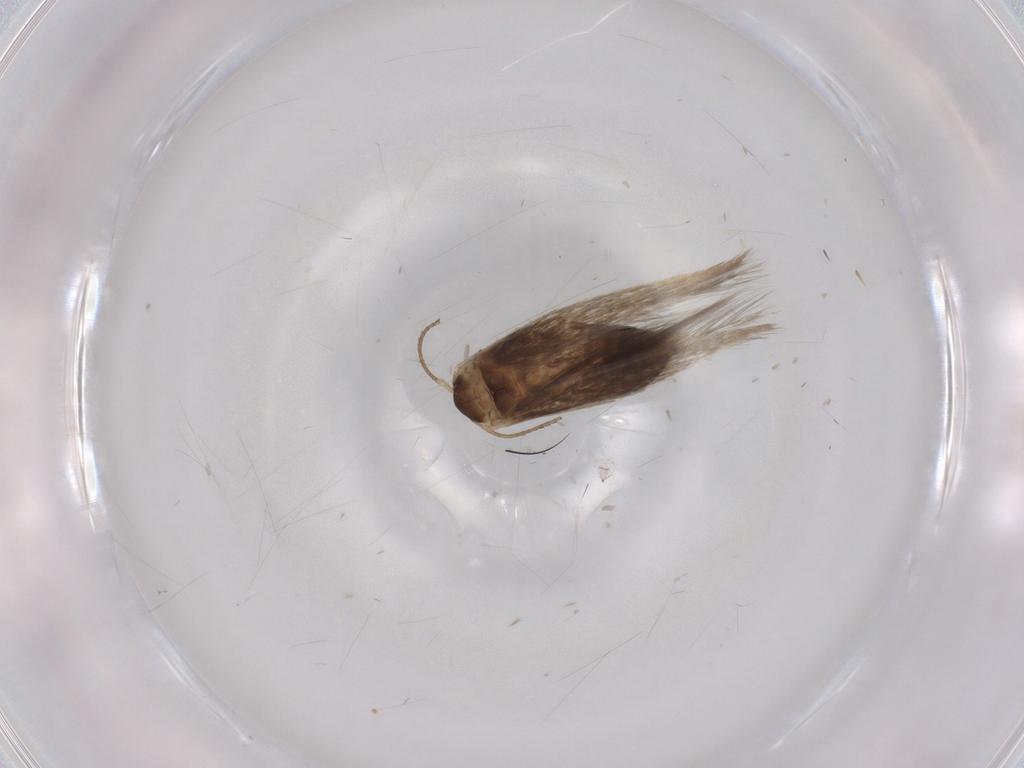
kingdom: Animalia
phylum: Arthropoda
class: Insecta
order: Lepidoptera
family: Nepticulidae
